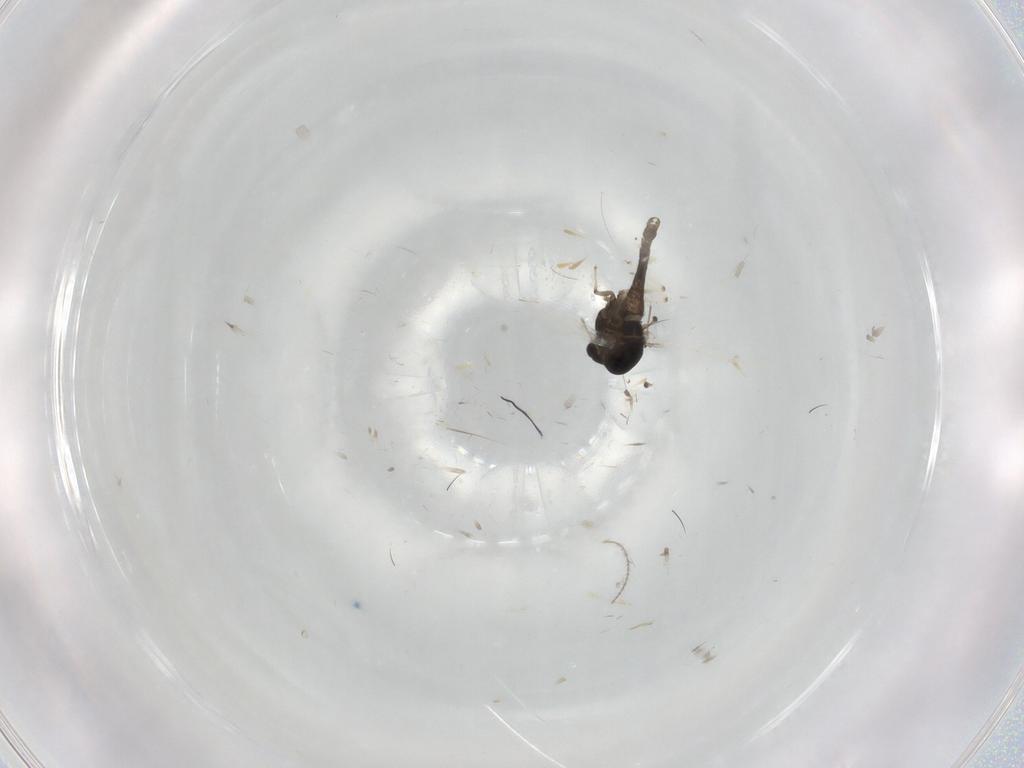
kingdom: Animalia
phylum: Arthropoda
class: Insecta
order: Diptera
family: Chironomidae
